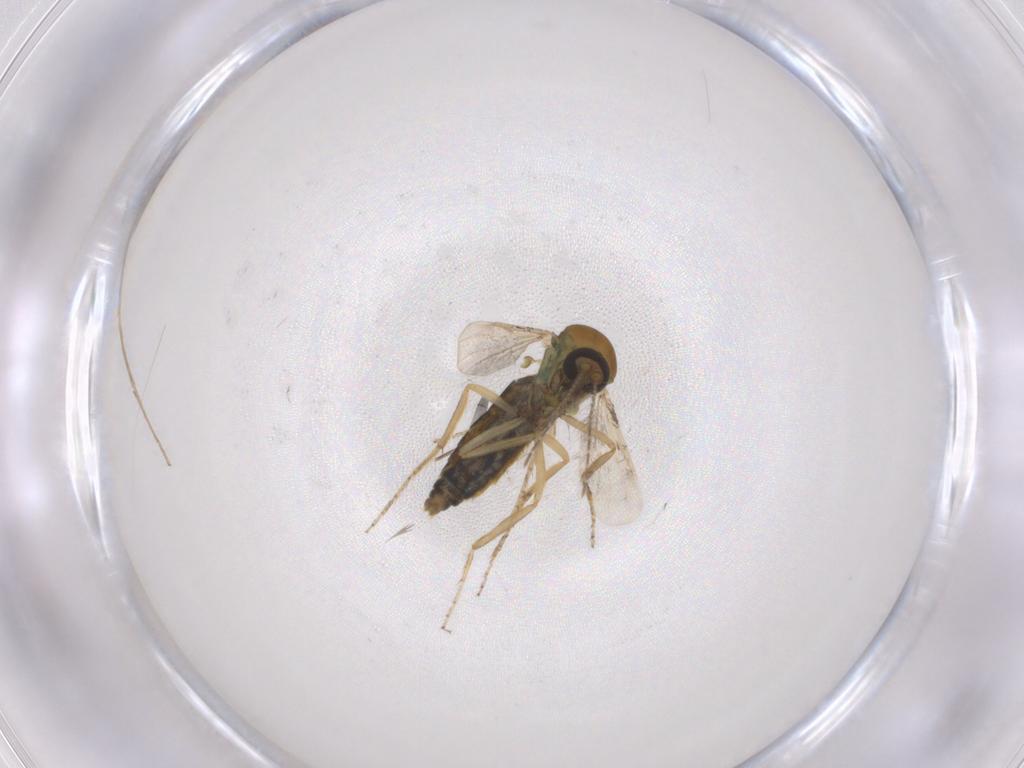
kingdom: Animalia
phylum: Arthropoda
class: Insecta
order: Diptera
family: Ceratopogonidae
